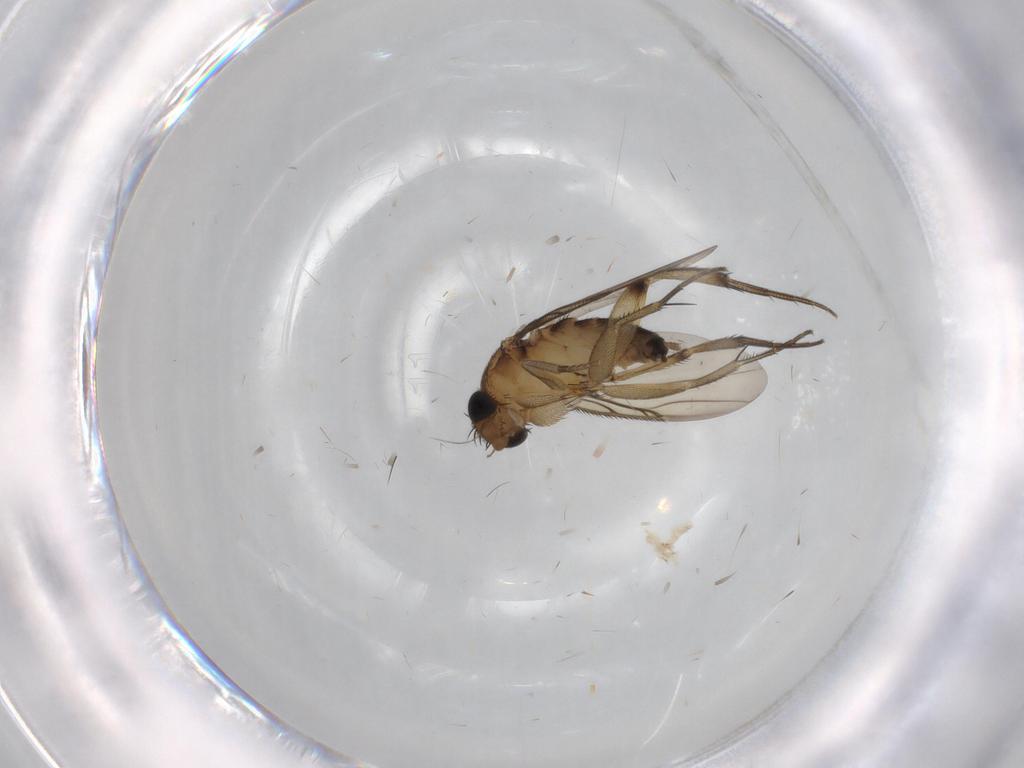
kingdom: Animalia
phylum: Arthropoda
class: Insecta
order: Diptera
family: Limoniidae
